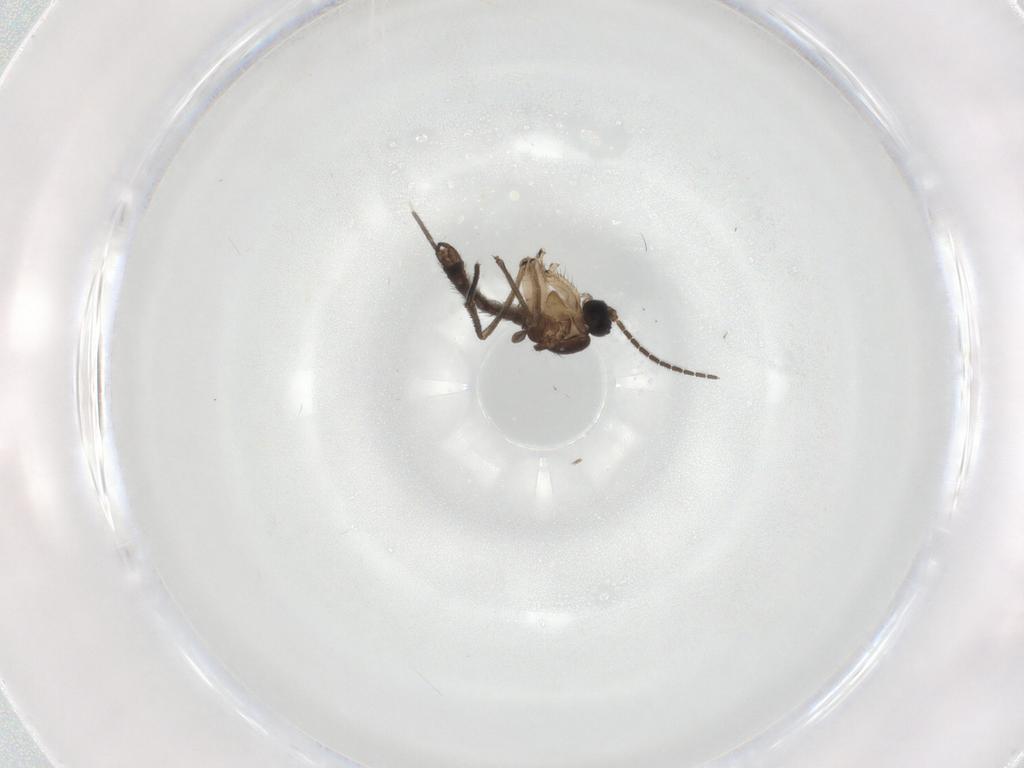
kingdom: Animalia
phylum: Arthropoda
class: Insecta
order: Diptera
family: Sciaridae
